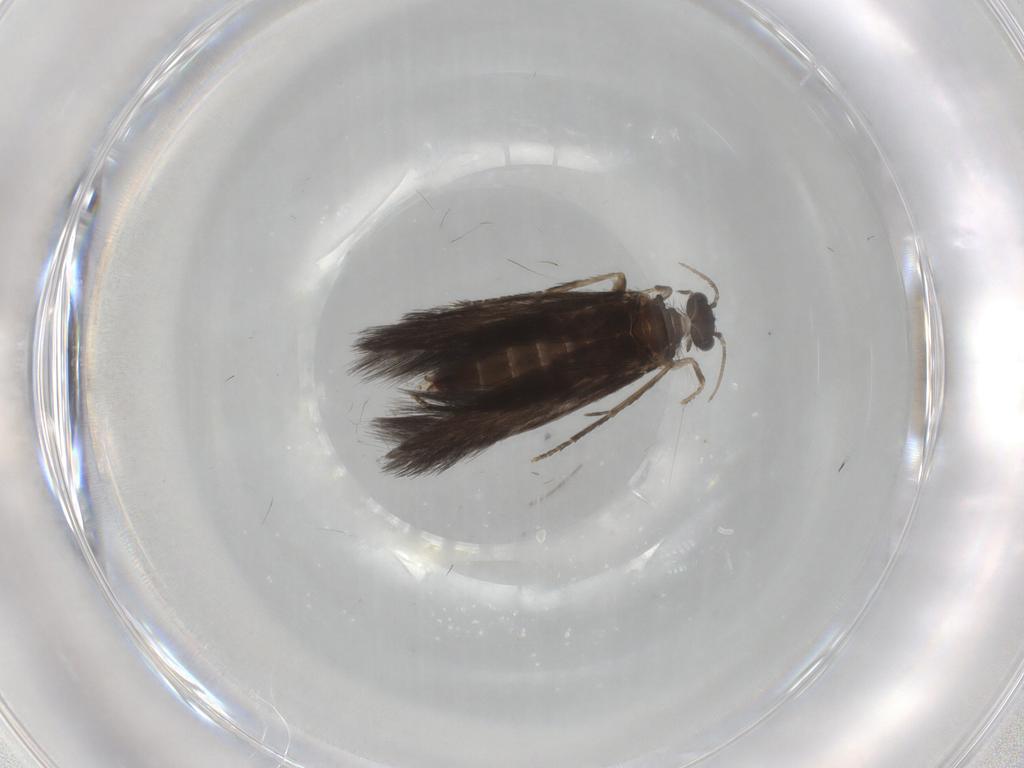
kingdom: Animalia
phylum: Arthropoda
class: Insecta
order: Trichoptera
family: Hydroptilidae
